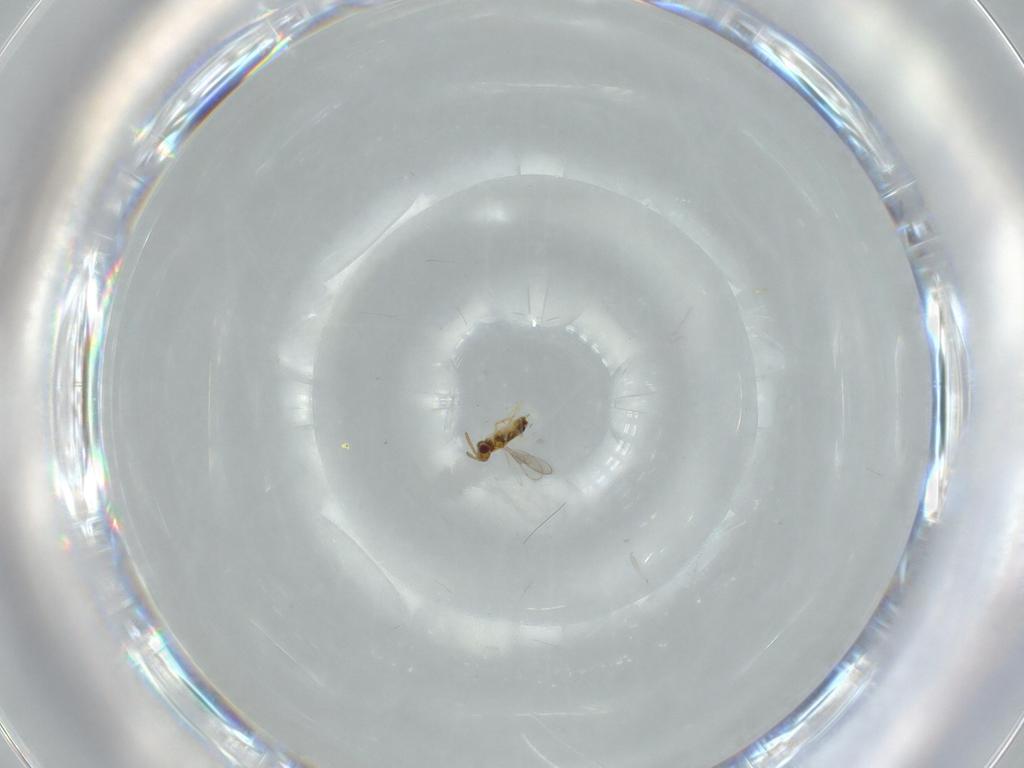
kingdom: Animalia
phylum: Arthropoda
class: Insecta
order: Hymenoptera
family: Aphelinidae
